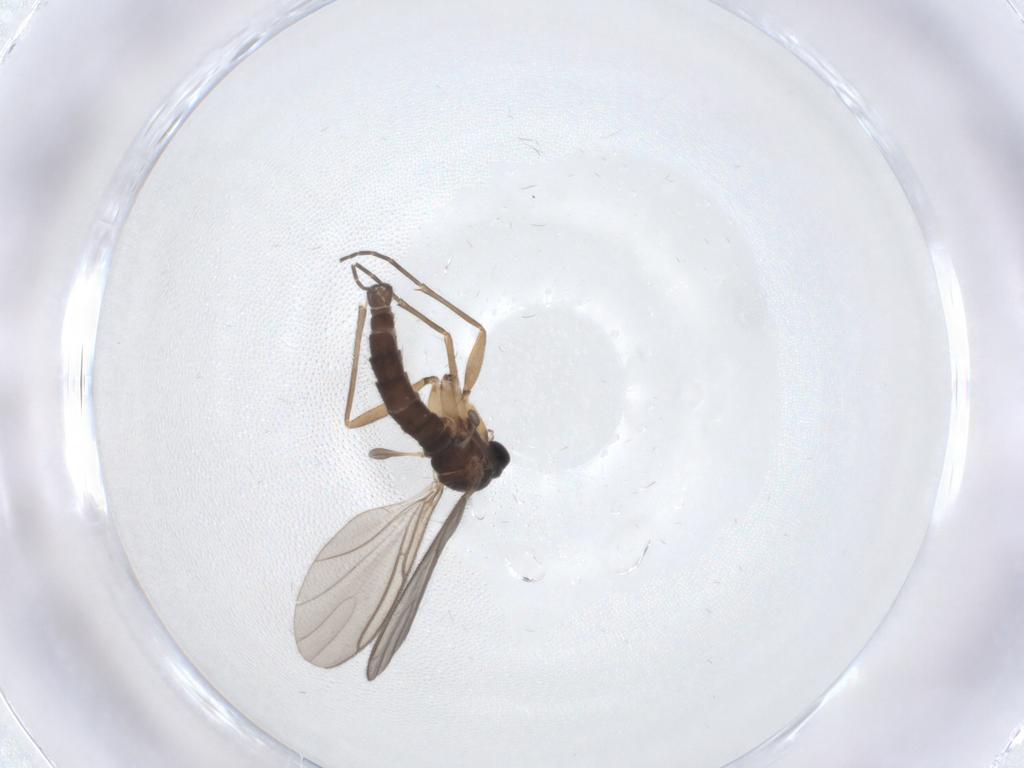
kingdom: Animalia
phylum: Arthropoda
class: Insecta
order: Diptera
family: Sciaridae
